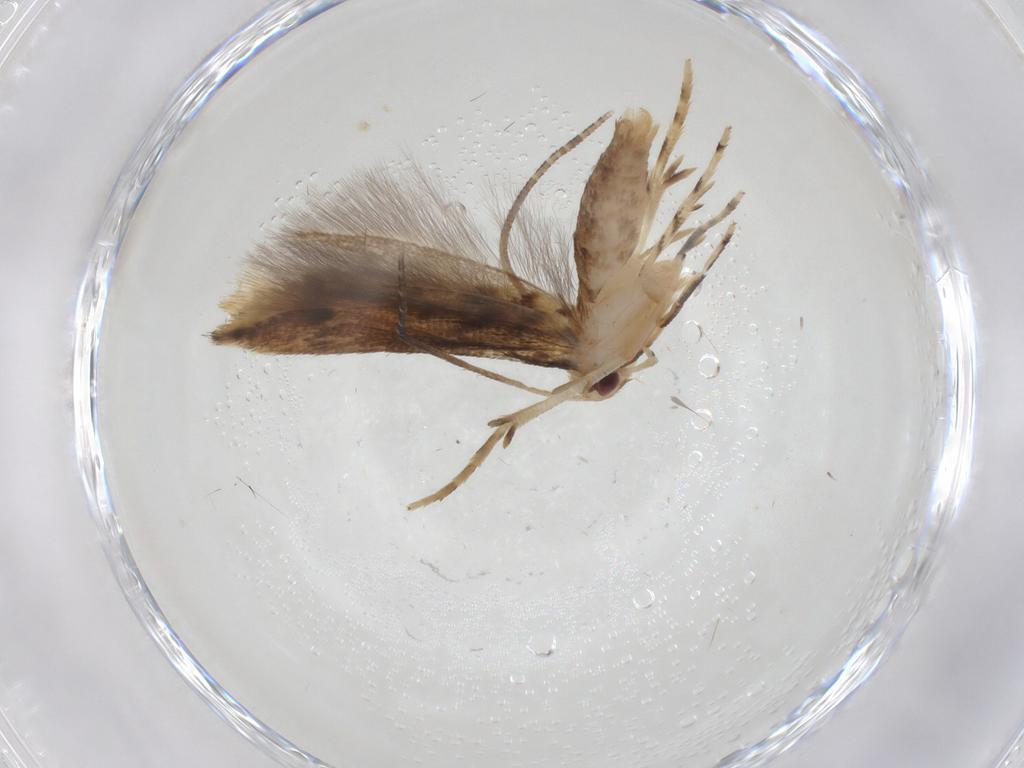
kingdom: Animalia
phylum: Arthropoda
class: Insecta
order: Lepidoptera
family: Momphidae
